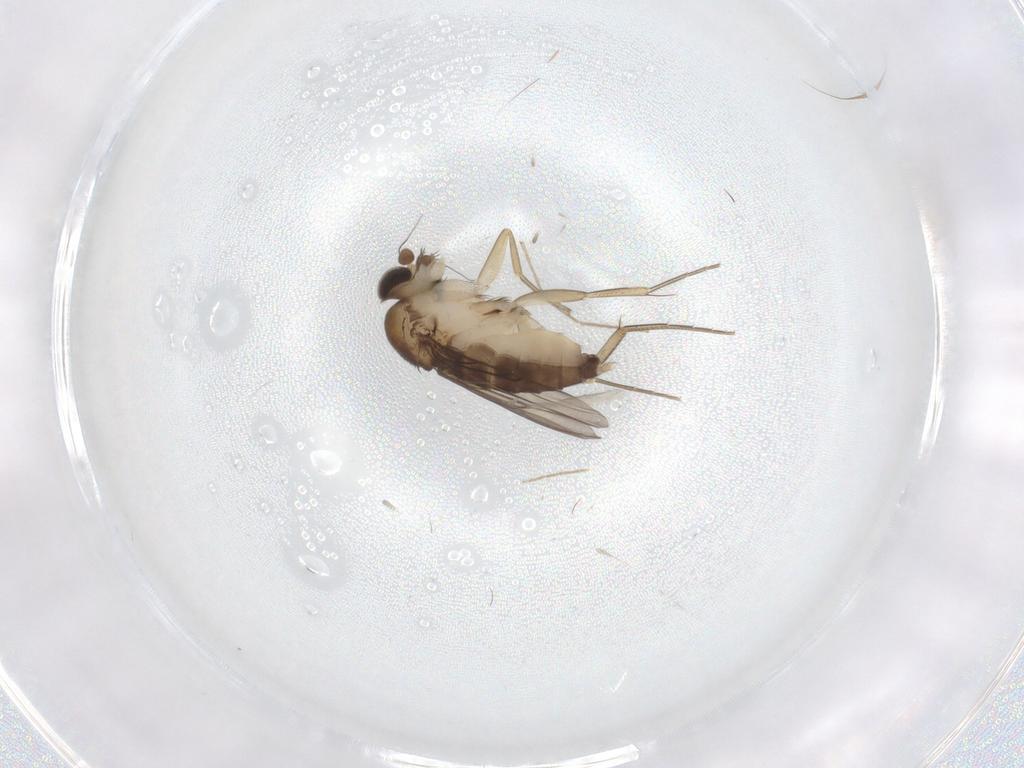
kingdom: Animalia
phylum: Arthropoda
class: Insecta
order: Diptera
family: Phoridae
